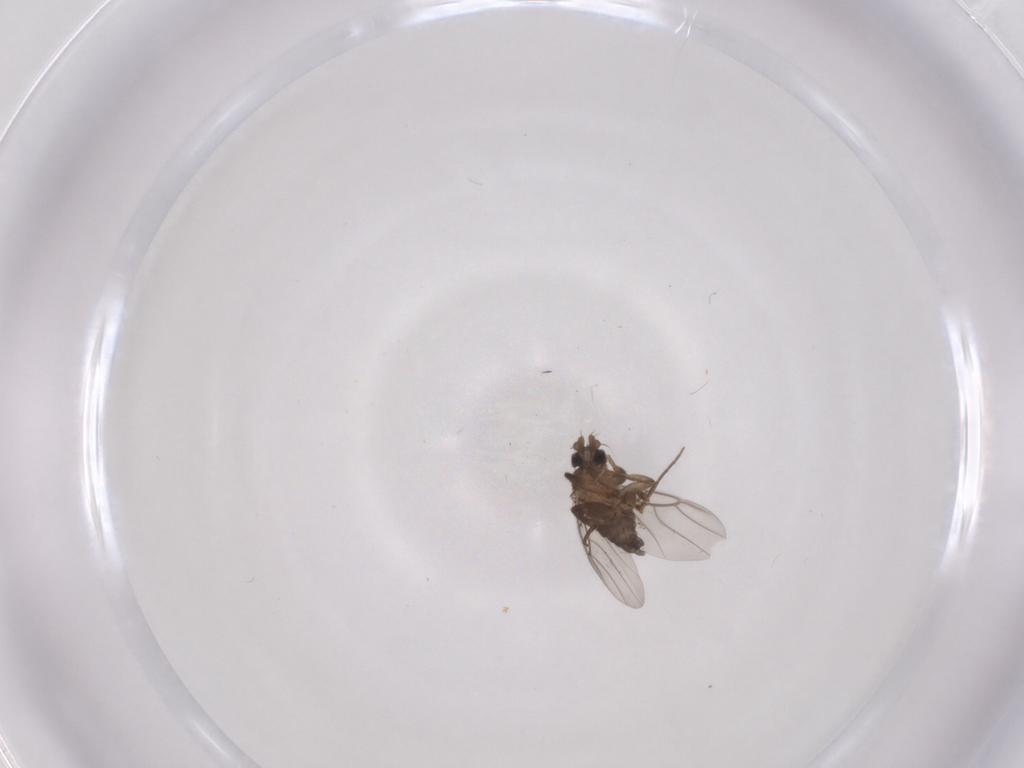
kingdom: Animalia
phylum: Arthropoda
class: Insecta
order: Diptera
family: Phoridae
